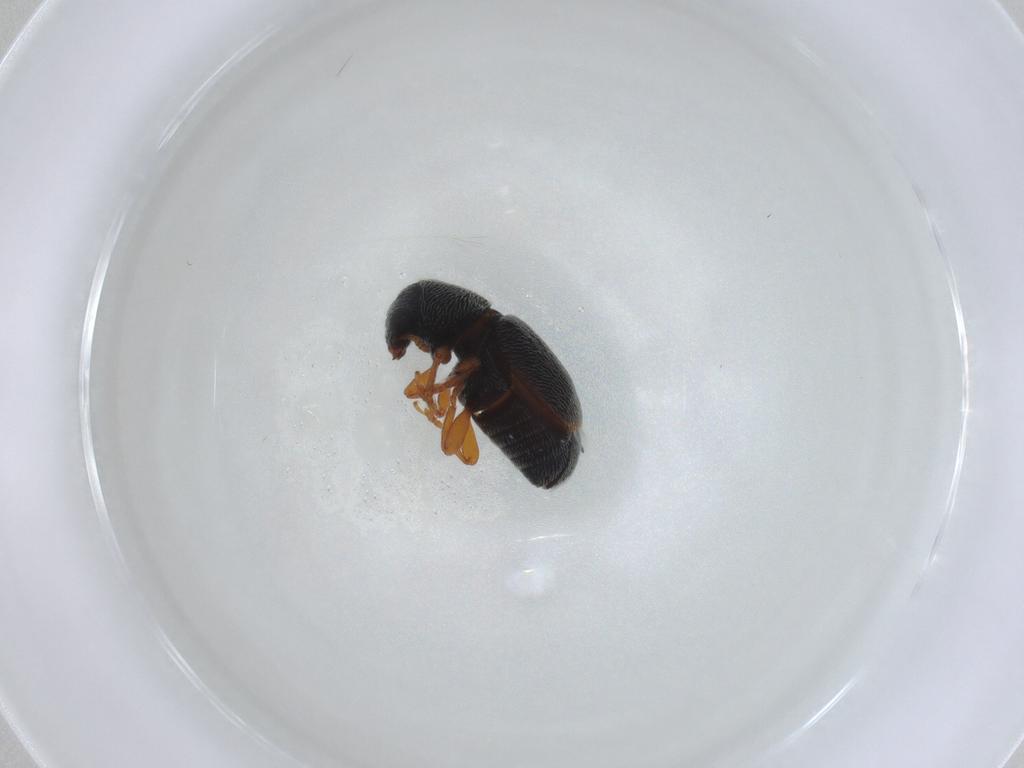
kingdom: Animalia
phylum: Arthropoda
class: Insecta
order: Coleoptera
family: Anthribidae
